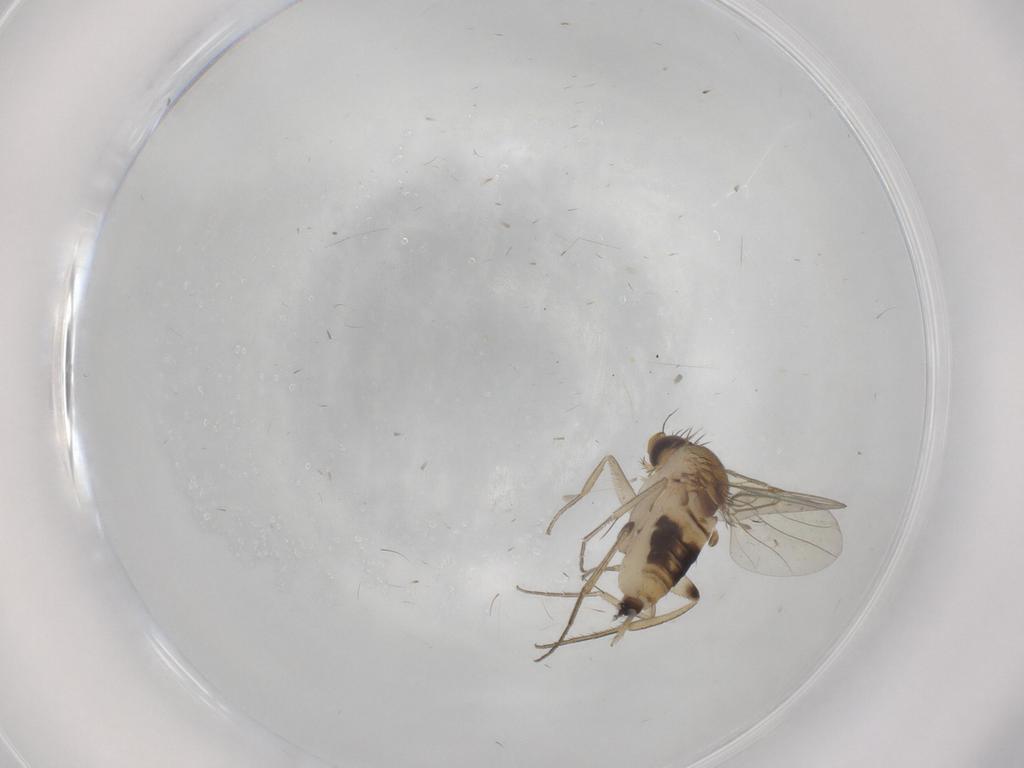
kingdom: Animalia
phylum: Arthropoda
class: Insecta
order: Diptera
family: Phoridae
